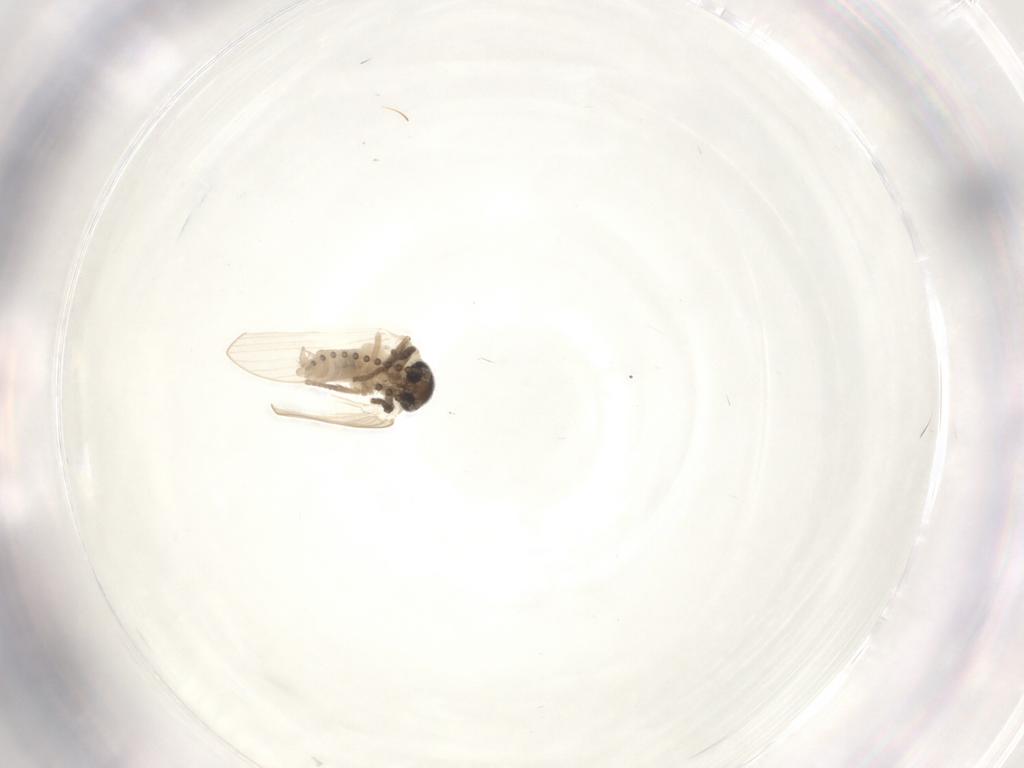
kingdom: Animalia
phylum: Arthropoda
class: Insecta
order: Diptera
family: Psychodidae
